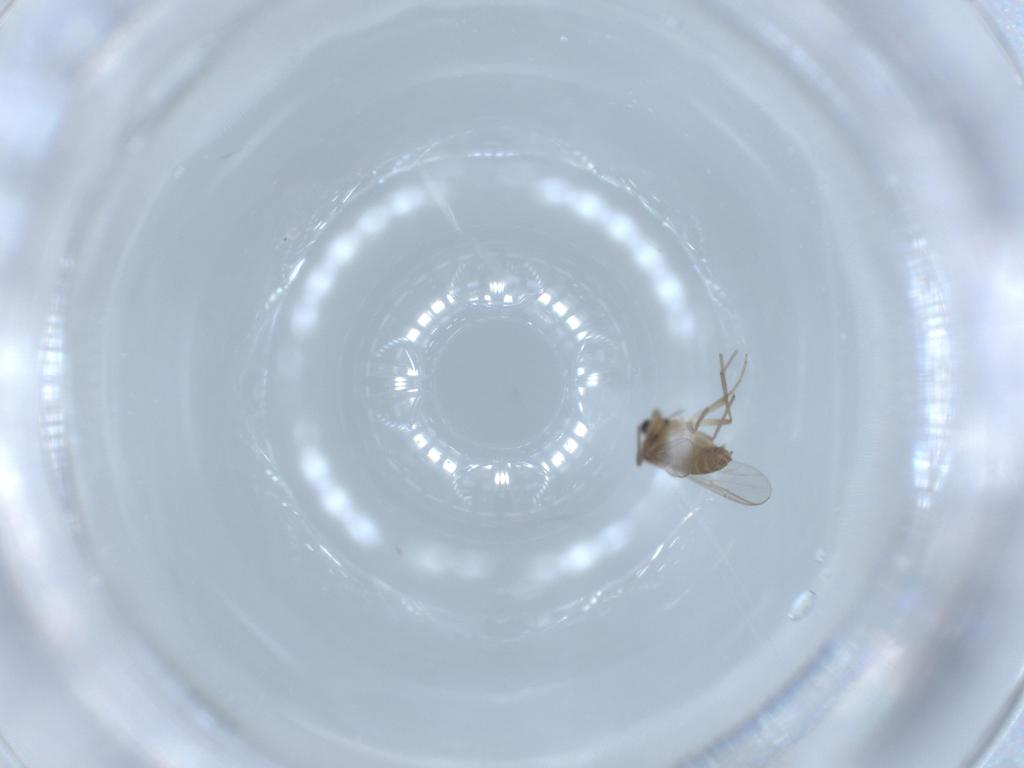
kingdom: Animalia
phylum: Arthropoda
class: Insecta
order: Diptera
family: Chironomidae
